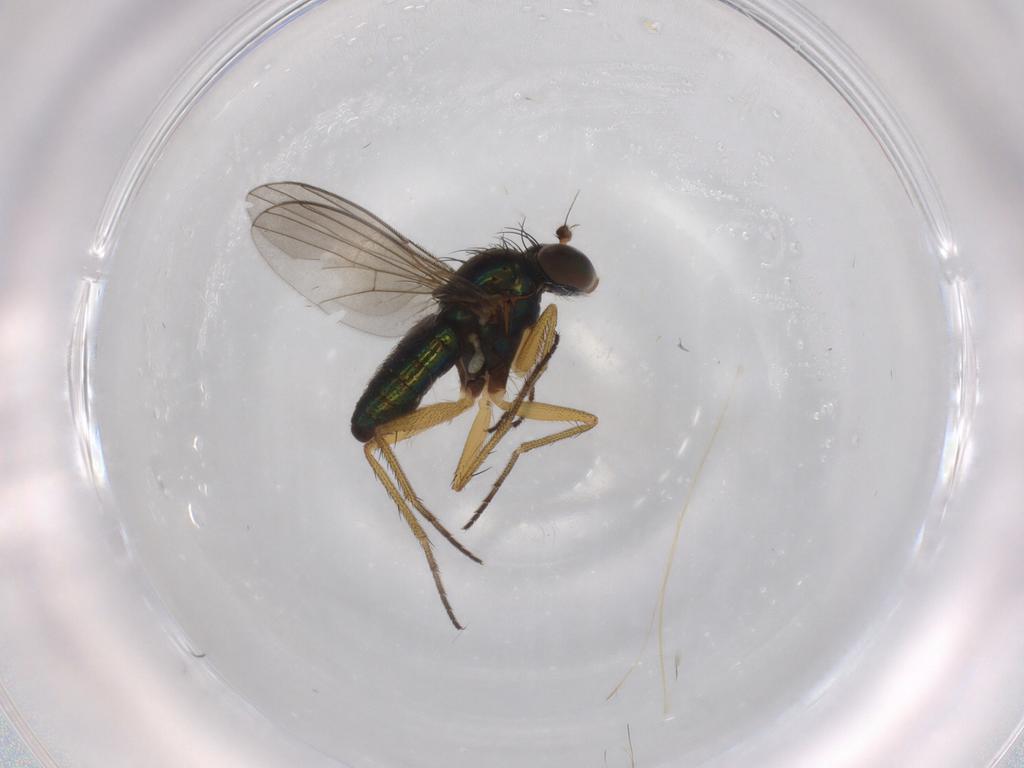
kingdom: Animalia
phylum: Arthropoda
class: Insecta
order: Diptera
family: Dolichopodidae
